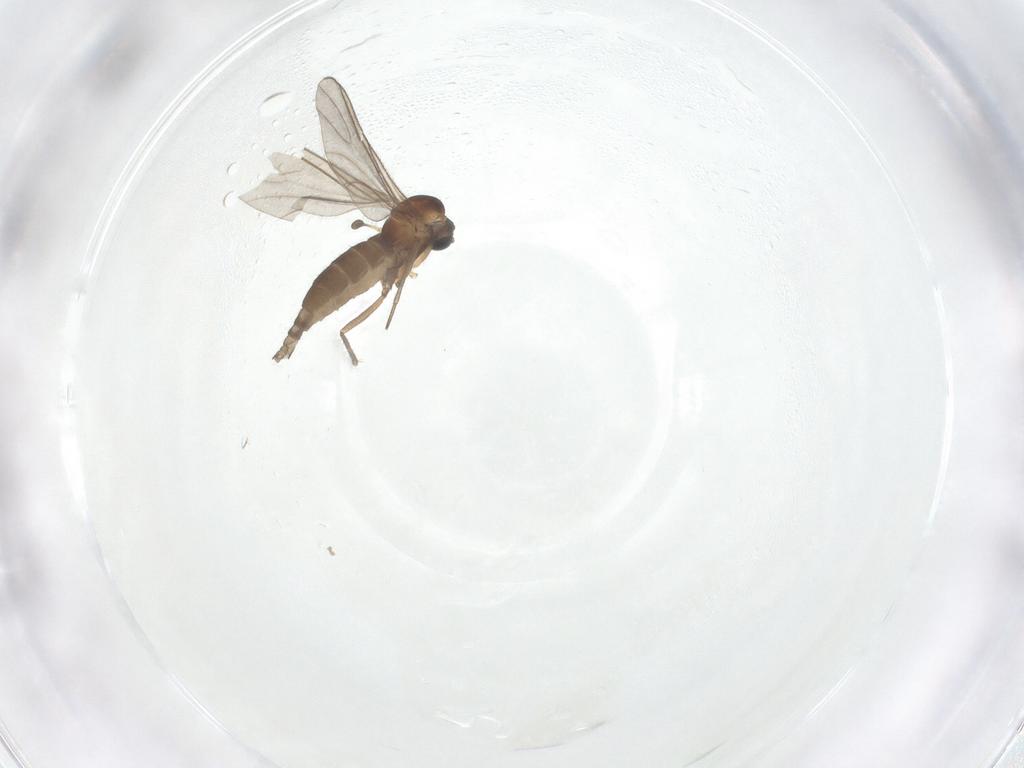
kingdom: Animalia
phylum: Arthropoda
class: Insecta
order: Diptera
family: Sciaridae
